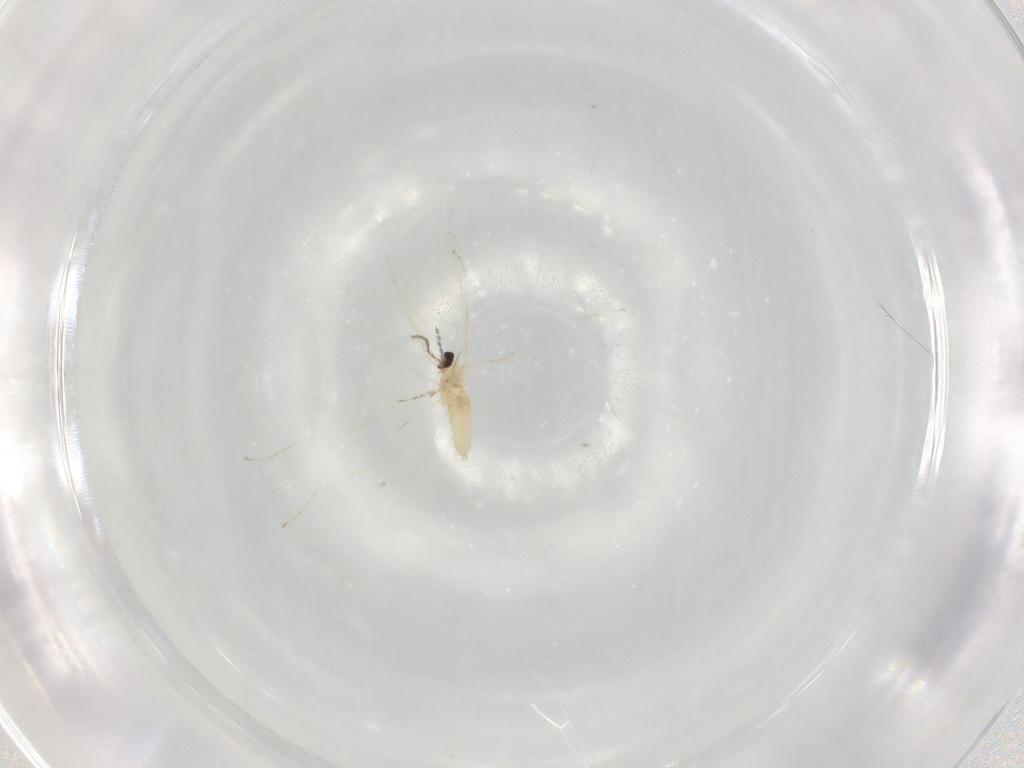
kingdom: Animalia
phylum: Arthropoda
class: Insecta
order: Diptera
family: Cecidomyiidae
